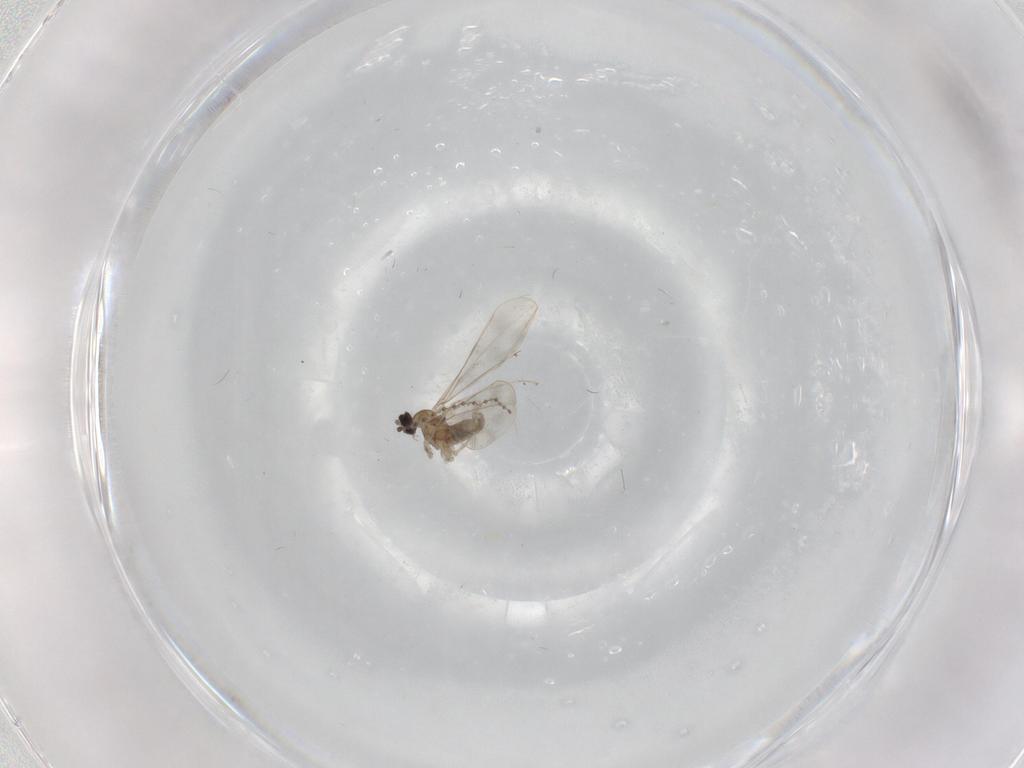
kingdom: Animalia
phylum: Arthropoda
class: Insecta
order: Diptera
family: Cecidomyiidae
